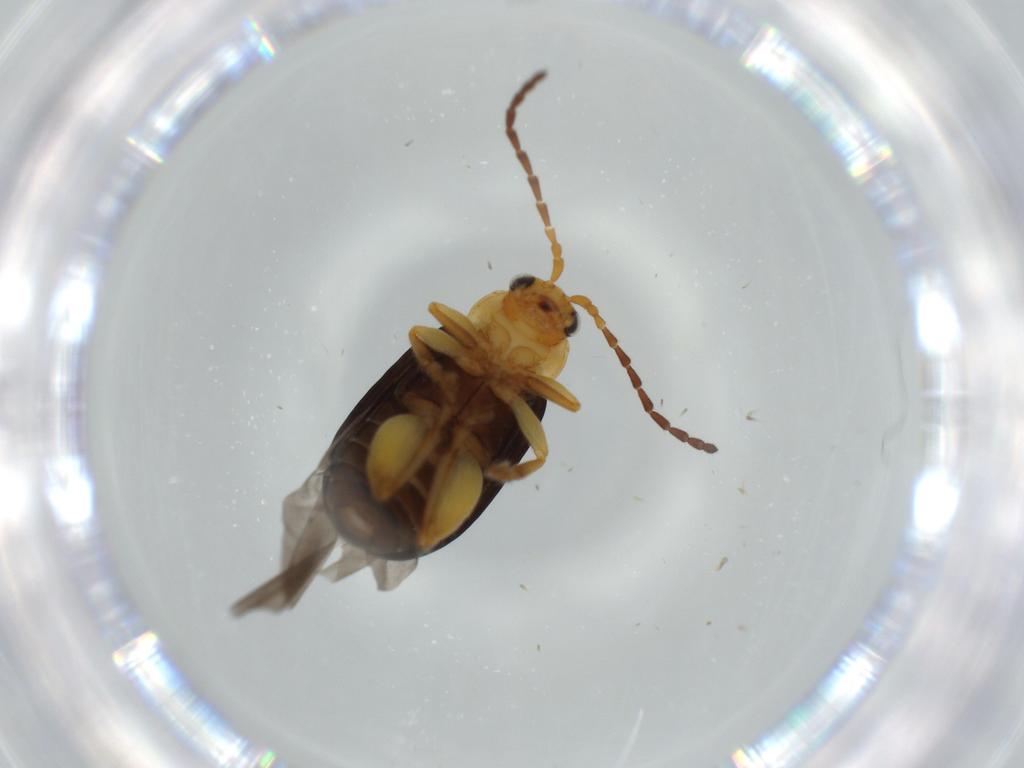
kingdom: Animalia
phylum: Arthropoda
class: Insecta
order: Coleoptera
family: Chrysomelidae
